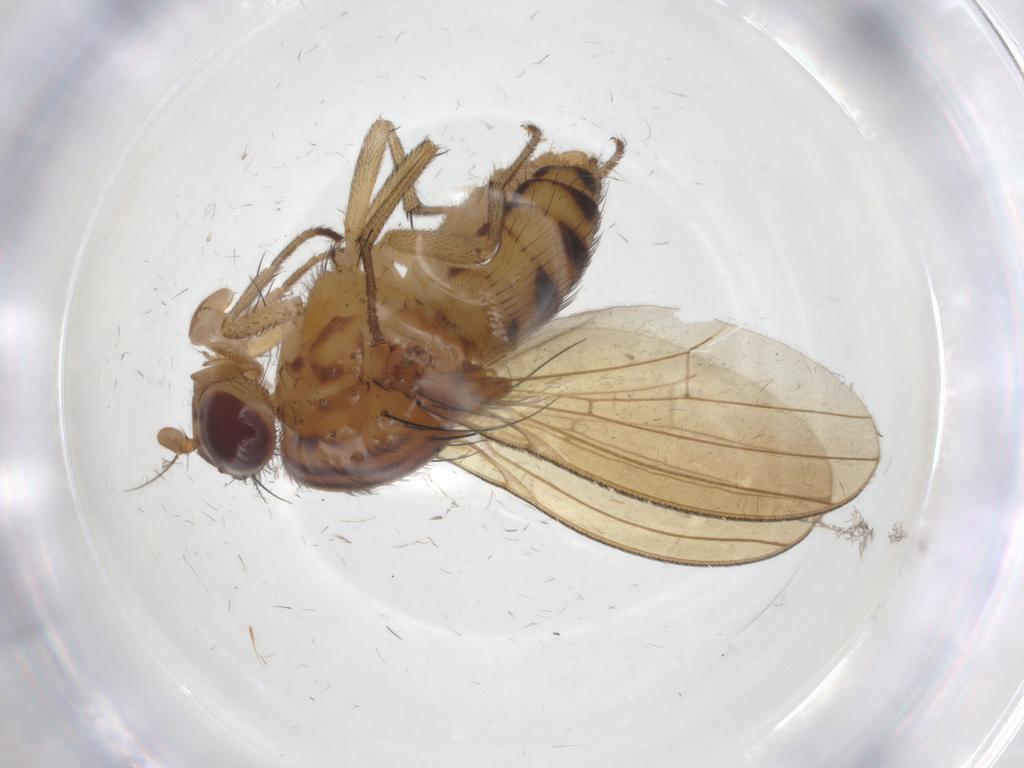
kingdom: Animalia
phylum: Arthropoda
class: Insecta
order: Diptera
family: Lauxaniidae
